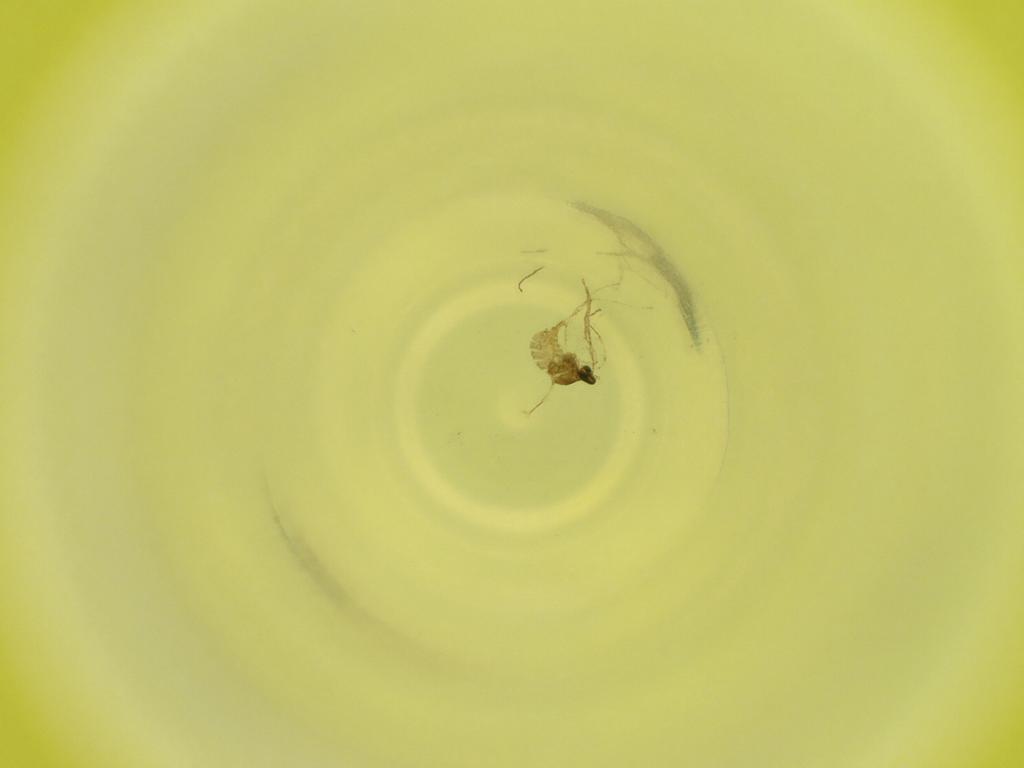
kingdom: Animalia
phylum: Arthropoda
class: Insecta
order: Diptera
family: Cecidomyiidae
